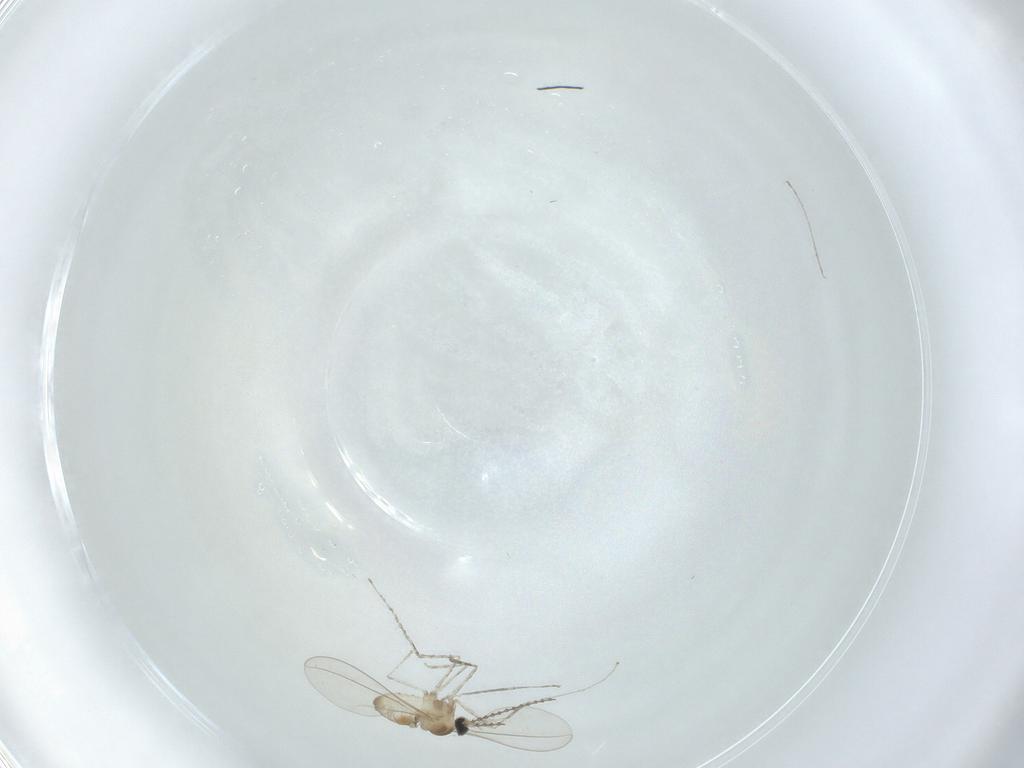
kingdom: Animalia
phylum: Arthropoda
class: Insecta
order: Diptera
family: Cecidomyiidae
